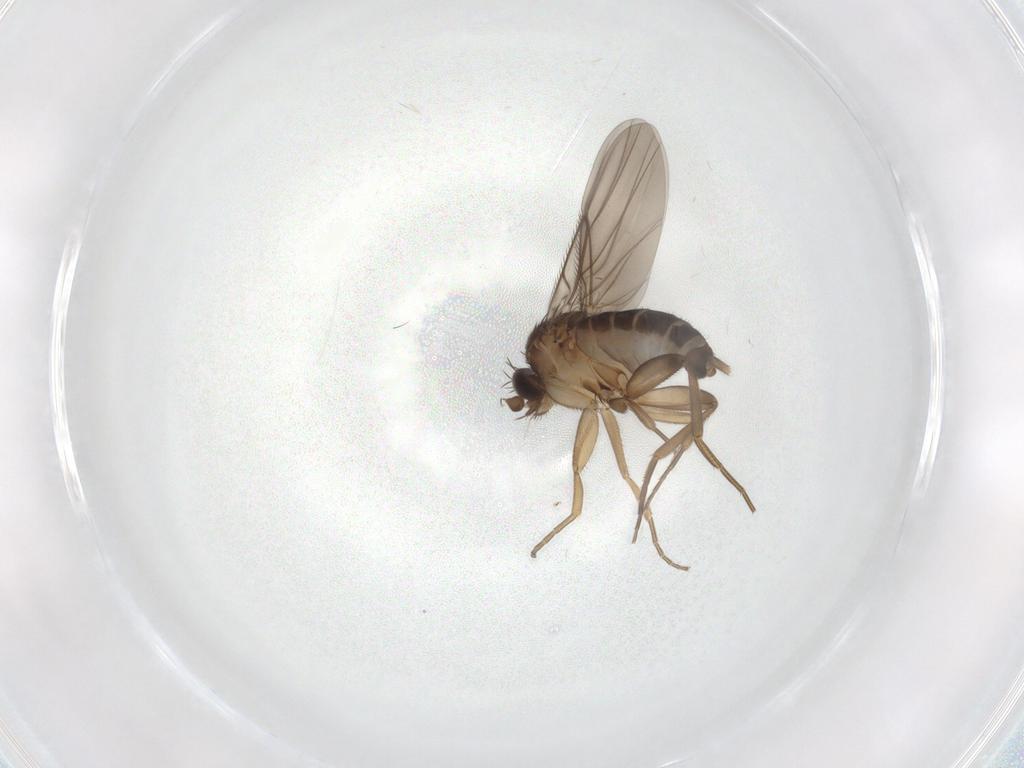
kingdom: Animalia
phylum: Arthropoda
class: Insecta
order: Diptera
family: Phoridae
